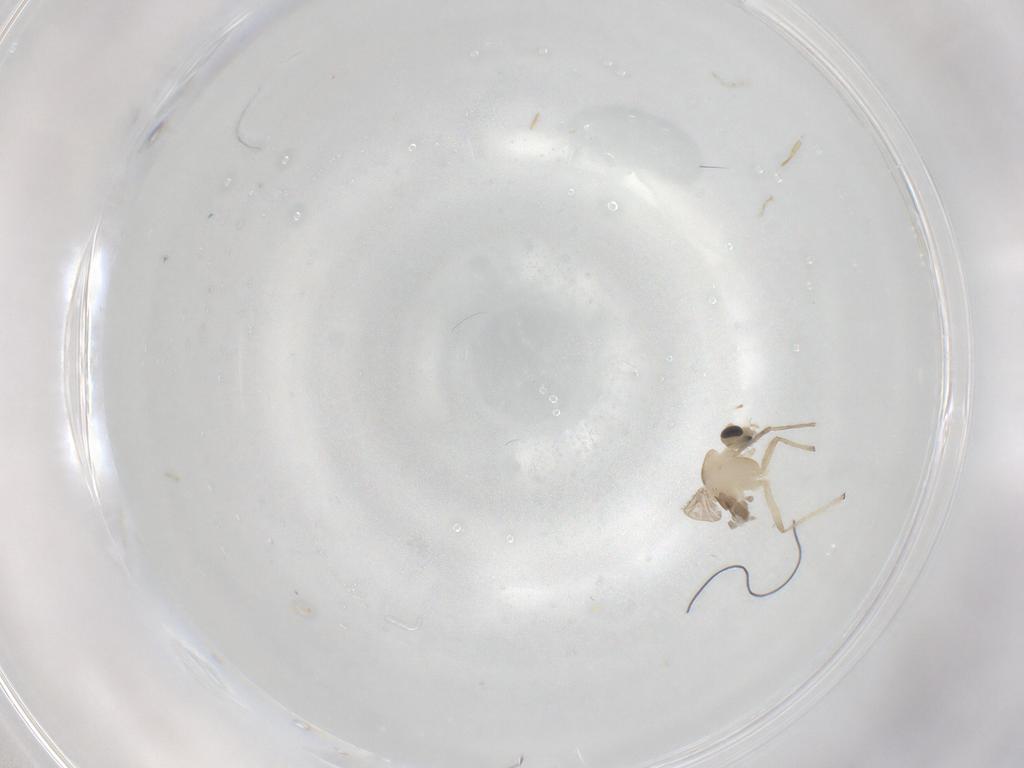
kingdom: Animalia
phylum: Arthropoda
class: Insecta
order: Diptera
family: Chironomidae
